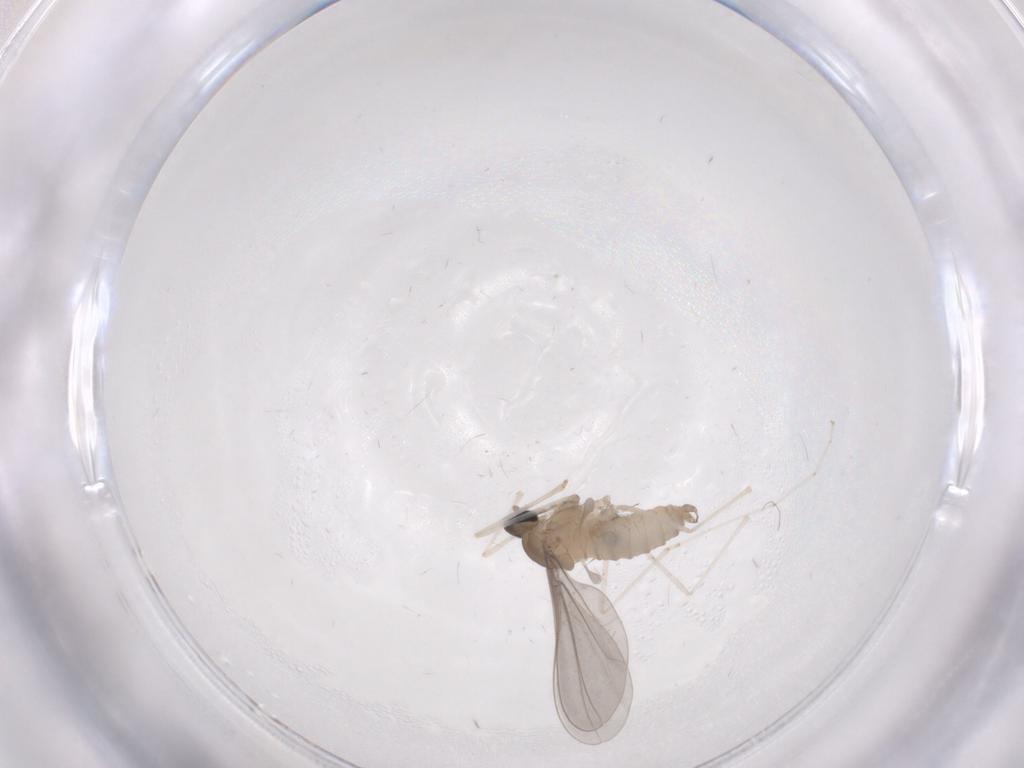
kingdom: Animalia
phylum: Arthropoda
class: Insecta
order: Diptera
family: Cecidomyiidae
